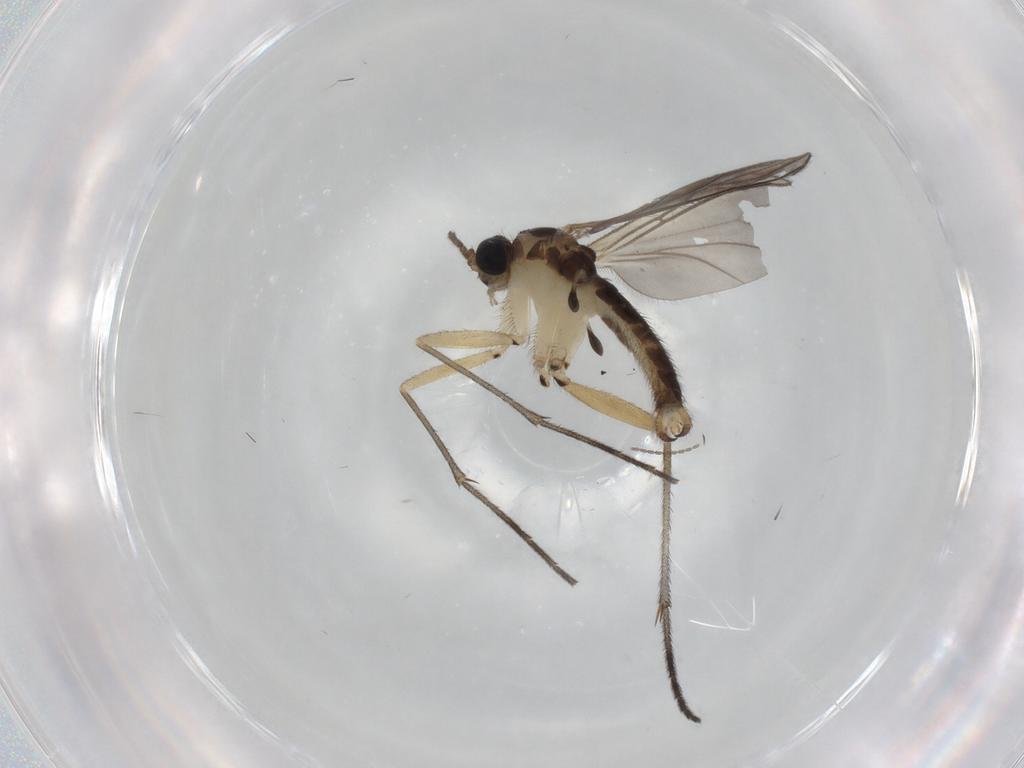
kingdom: Animalia
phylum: Arthropoda
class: Insecta
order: Diptera
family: Sciaridae
